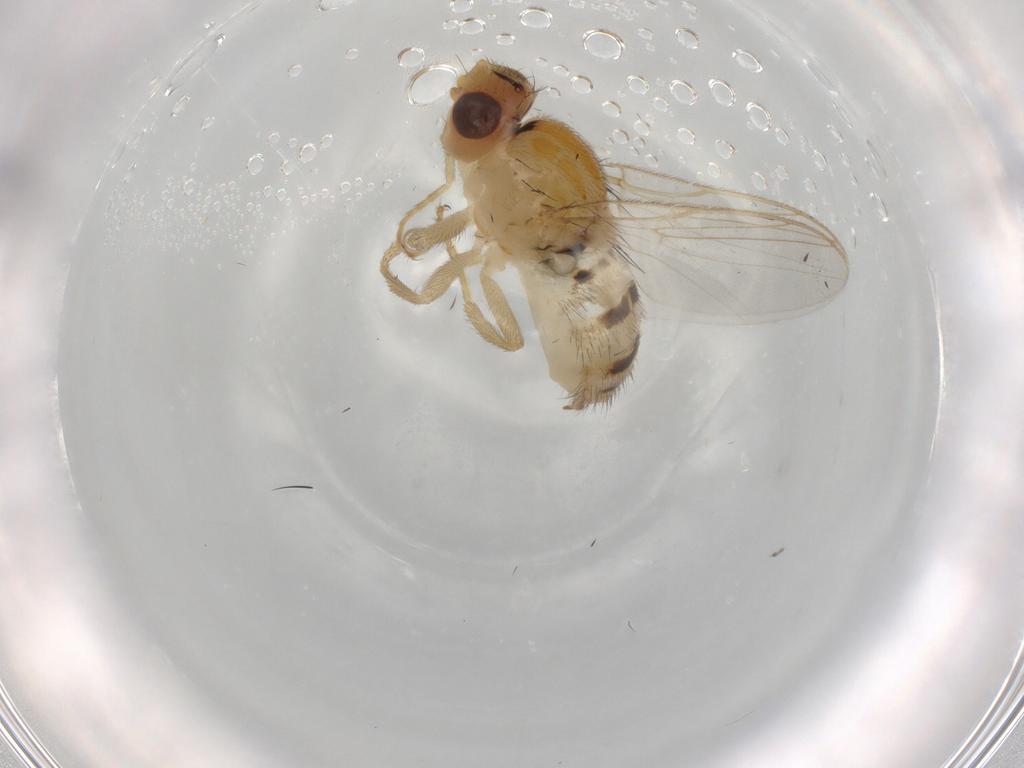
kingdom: Animalia
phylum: Arthropoda
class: Insecta
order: Diptera
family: Chloropidae
